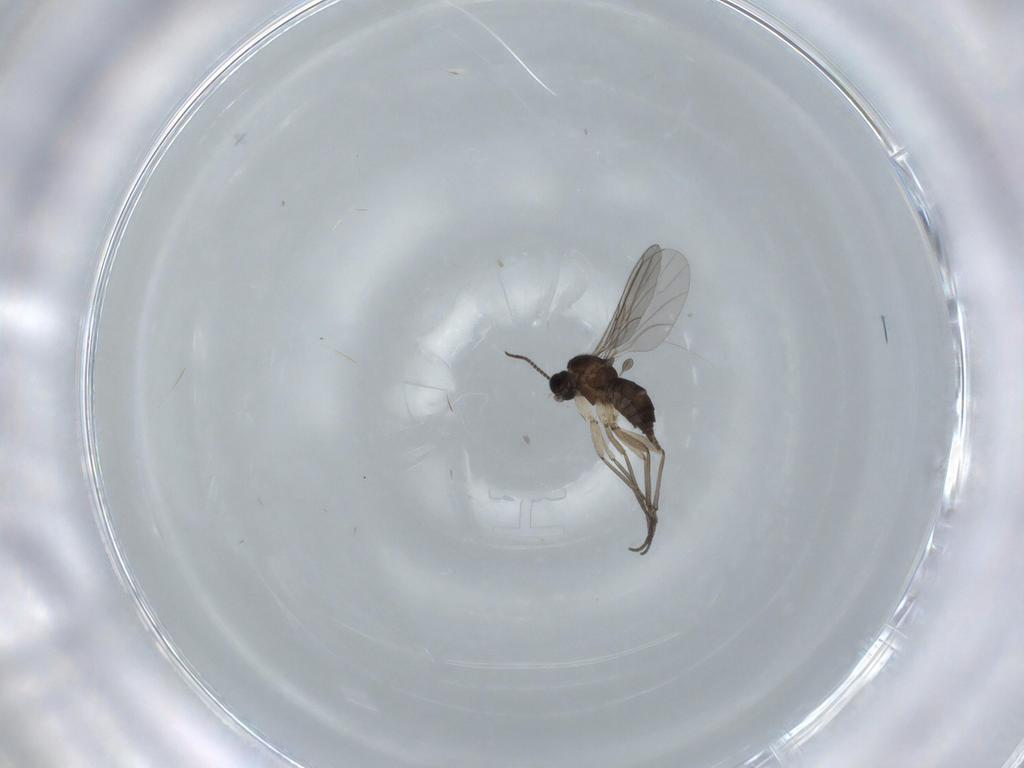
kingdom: Animalia
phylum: Arthropoda
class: Insecta
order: Diptera
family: Sciaridae
